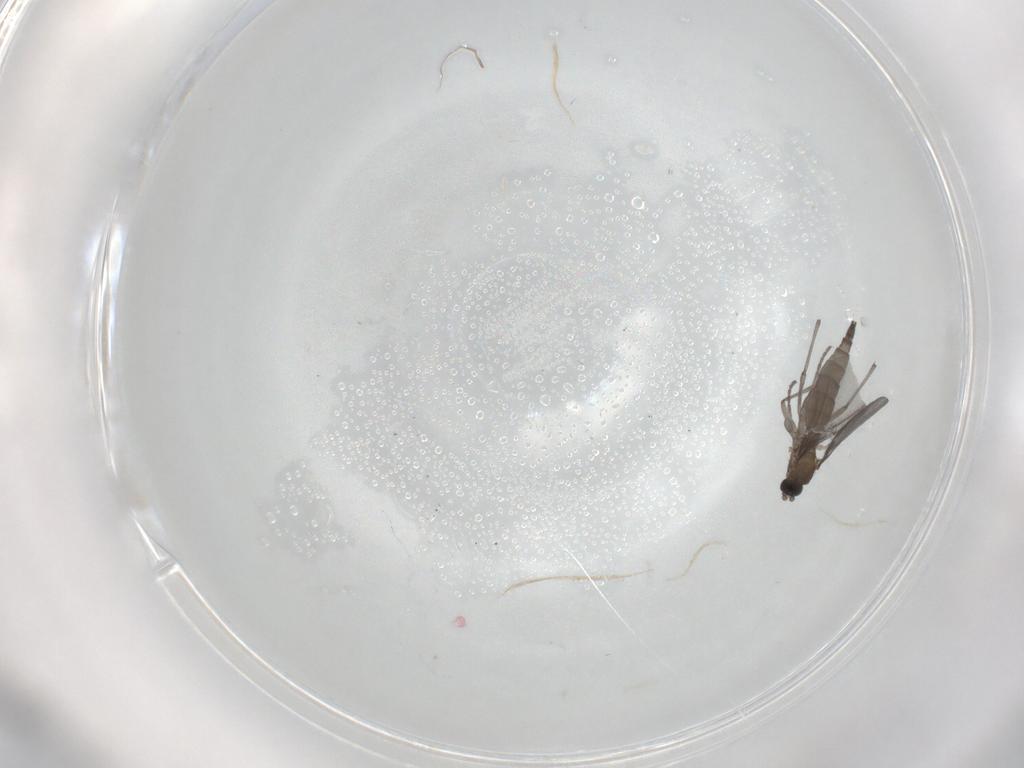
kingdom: Animalia
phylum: Arthropoda
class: Insecta
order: Diptera
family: Sciaridae
